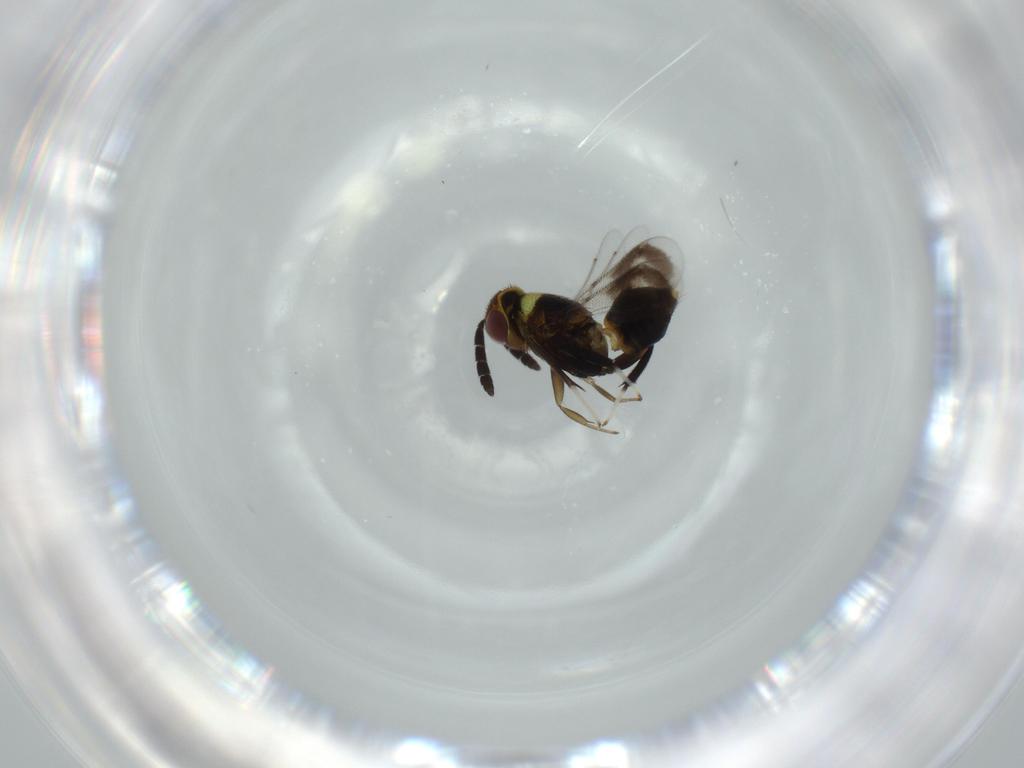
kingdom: Animalia
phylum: Arthropoda
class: Insecta
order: Hymenoptera
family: Aphelinidae
